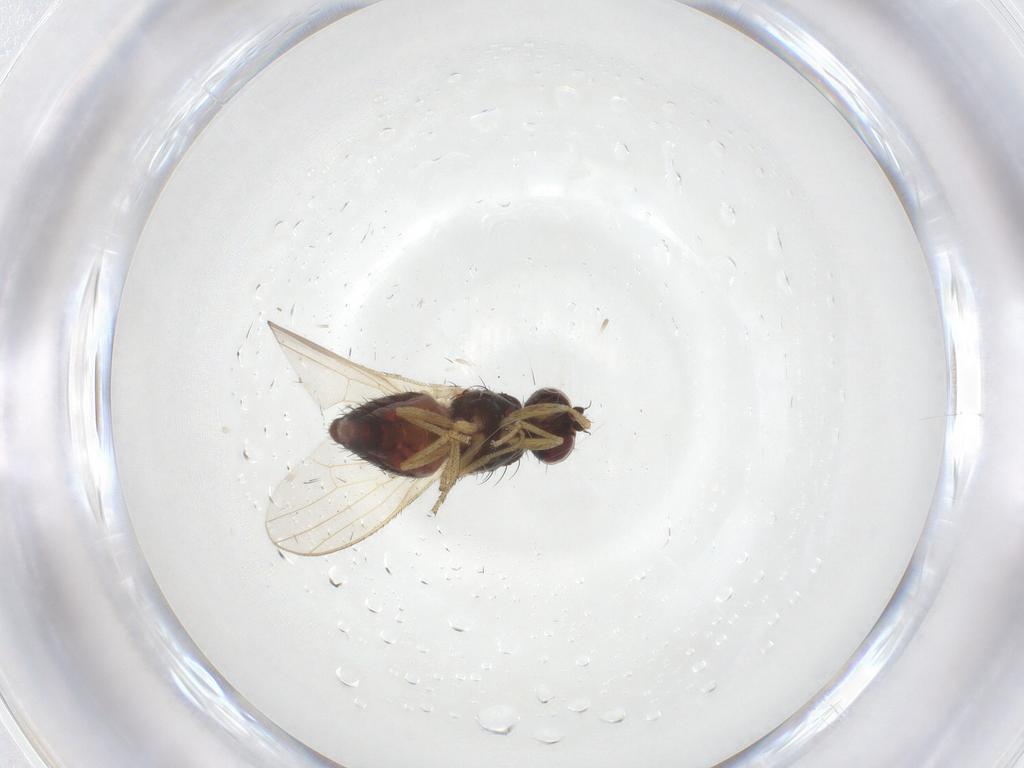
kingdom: Animalia
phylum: Arthropoda
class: Insecta
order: Diptera
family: Heleomyzidae
